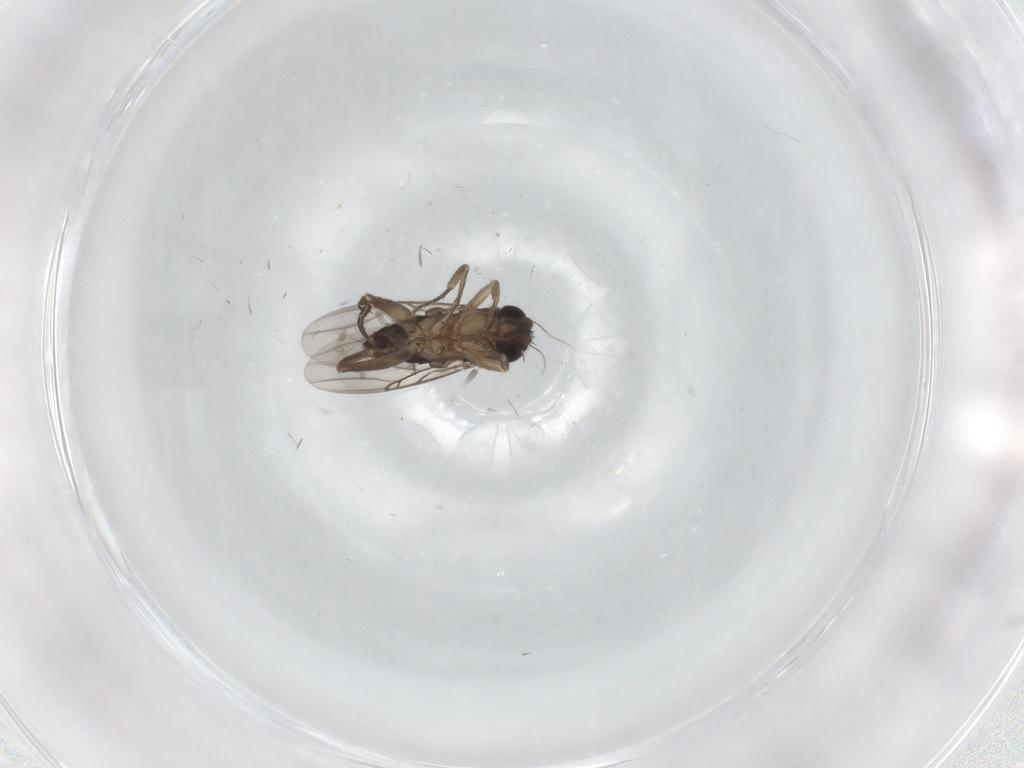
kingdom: Animalia
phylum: Arthropoda
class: Insecta
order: Diptera
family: Phoridae
